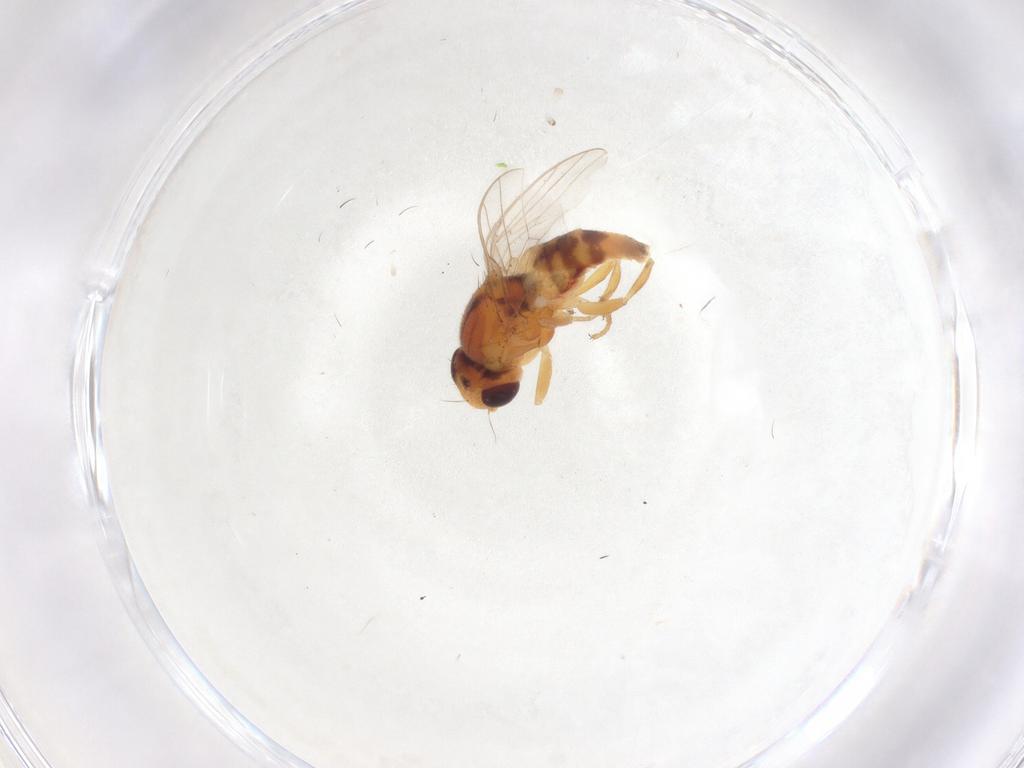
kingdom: Animalia
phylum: Arthropoda
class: Insecta
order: Diptera
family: Chloropidae
